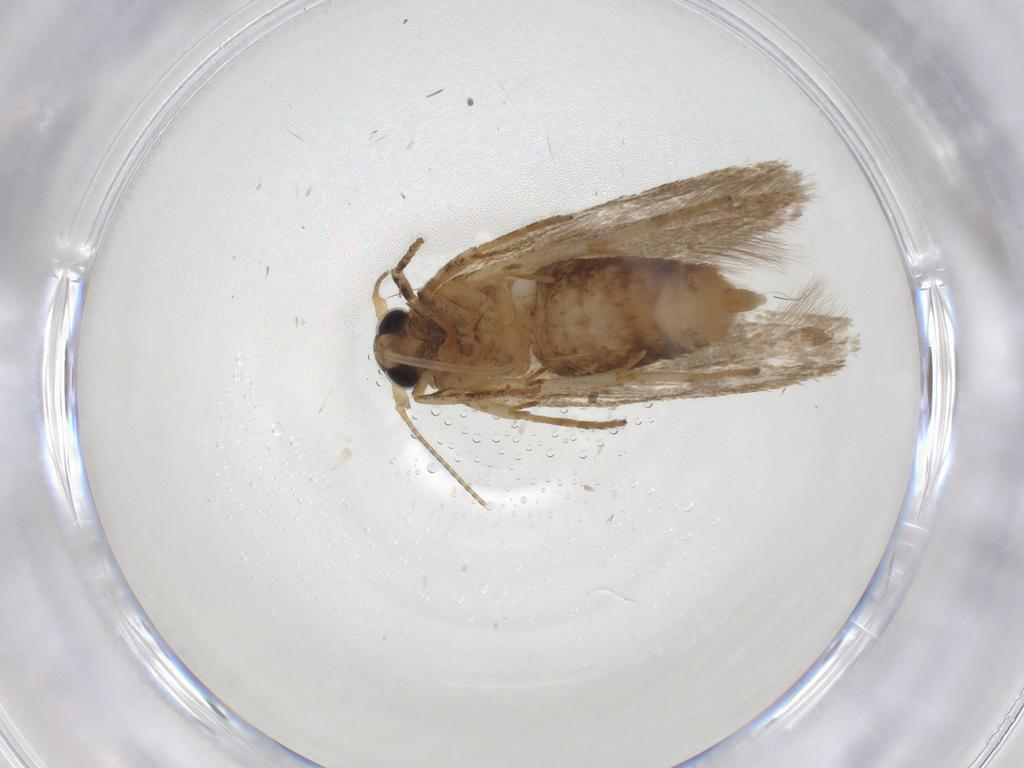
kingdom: Animalia
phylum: Arthropoda
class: Insecta
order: Lepidoptera
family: Blastobasidae
